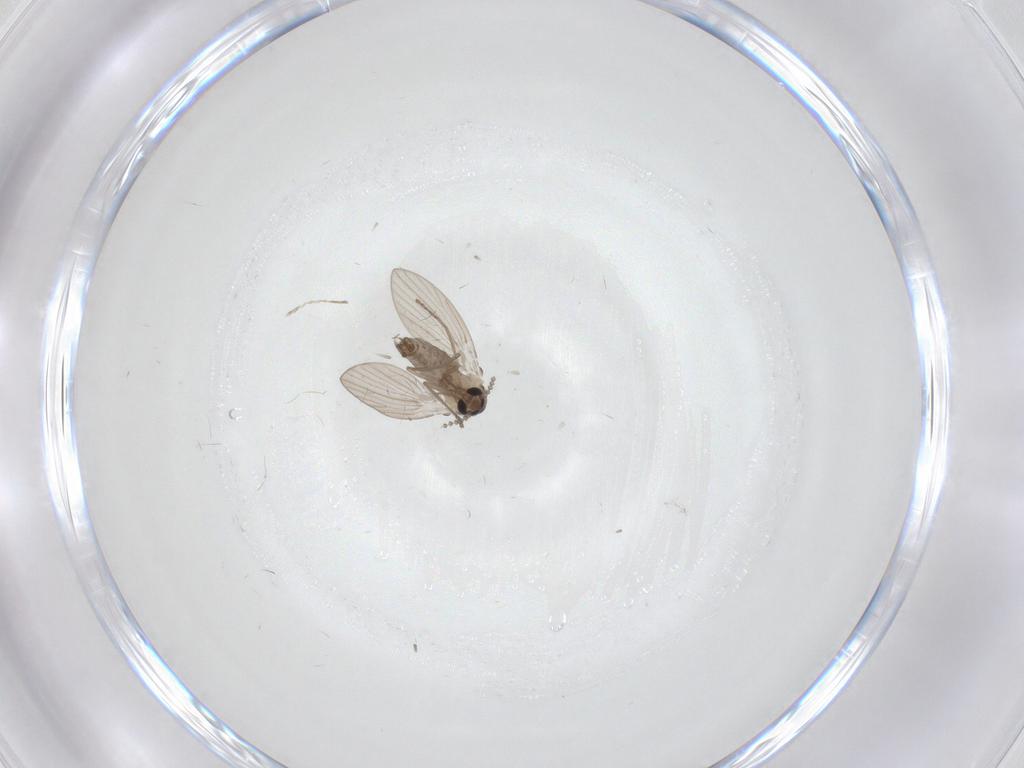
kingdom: Animalia
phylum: Arthropoda
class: Insecta
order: Diptera
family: Psychodidae
